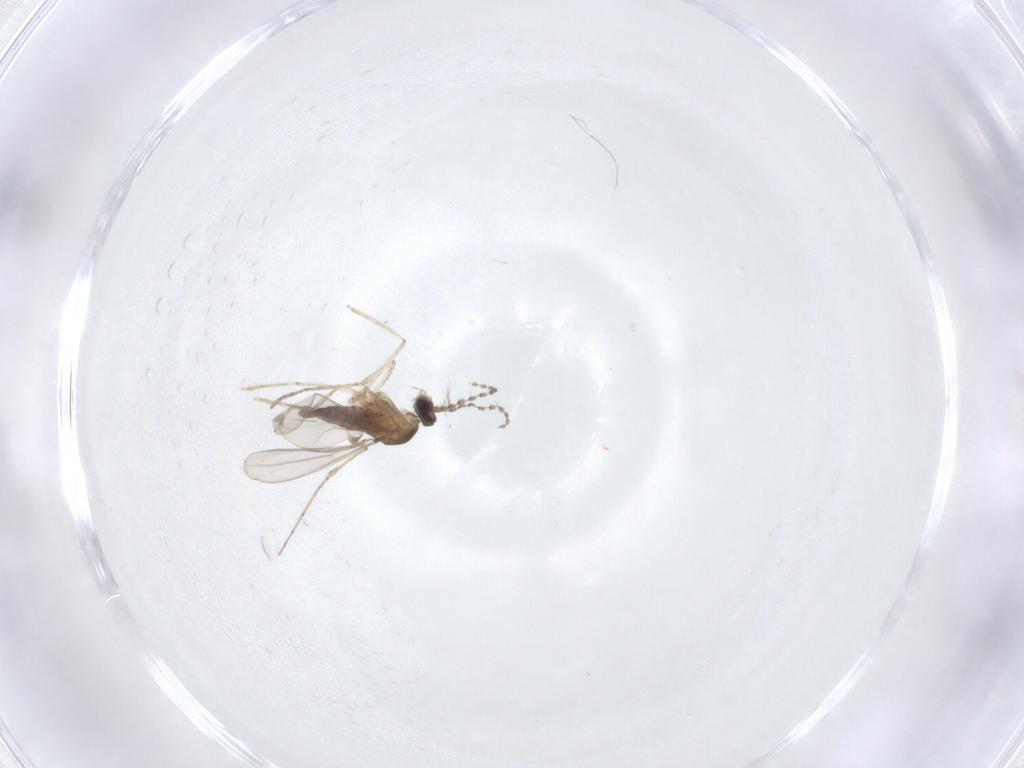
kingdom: Animalia
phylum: Arthropoda
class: Insecta
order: Diptera
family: Cecidomyiidae
